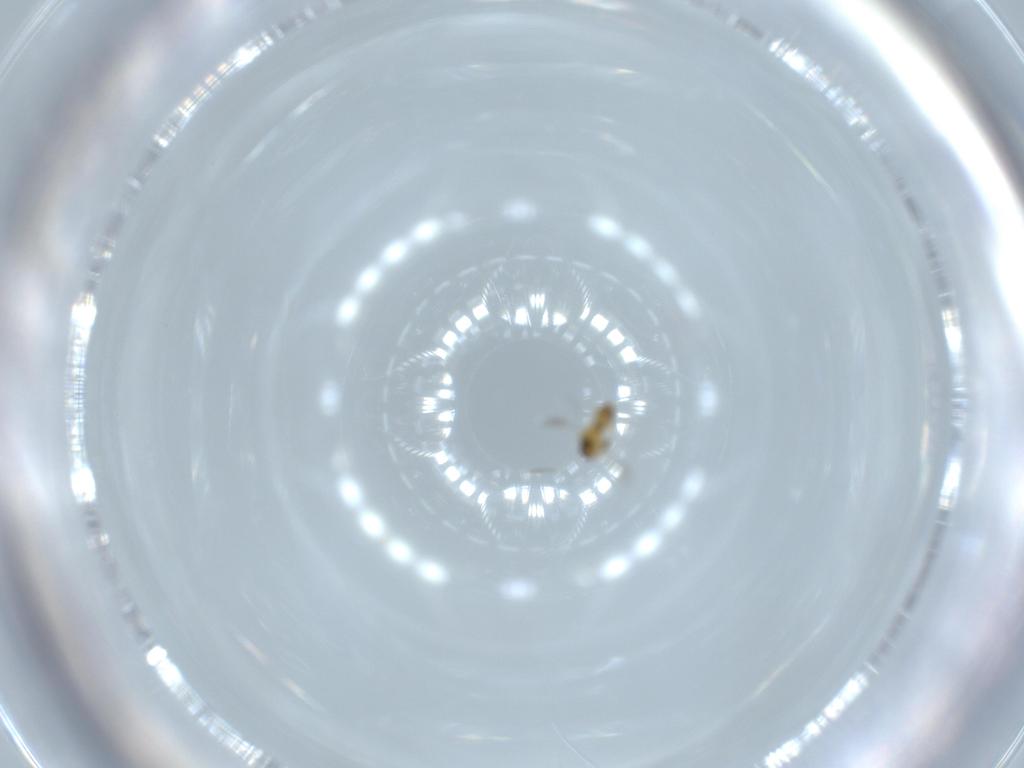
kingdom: Animalia
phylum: Arthropoda
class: Insecta
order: Hymenoptera
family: Platygastridae
